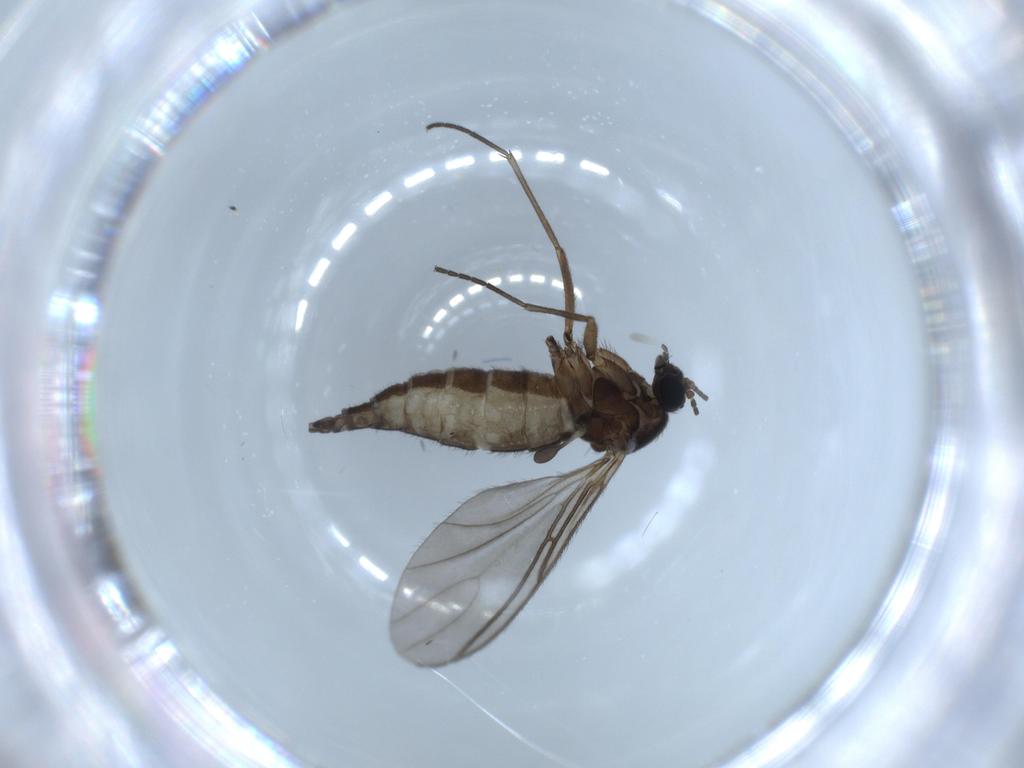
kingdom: Animalia
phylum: Arthropoda
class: Insecta
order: Diptera
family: Sciaridae
